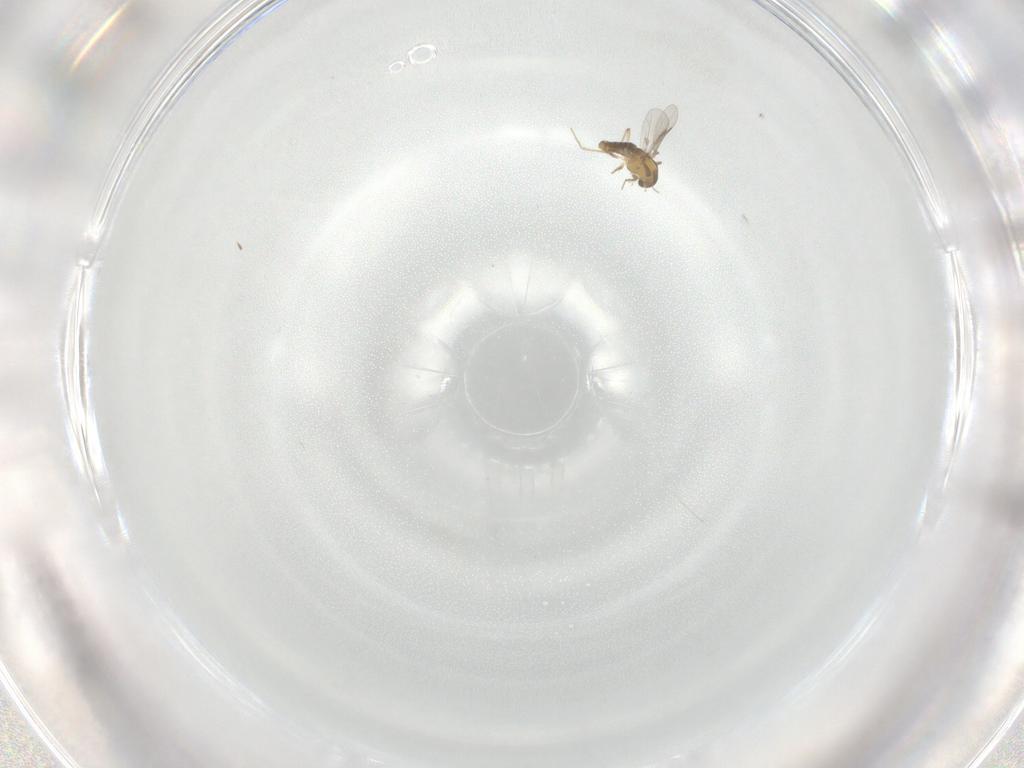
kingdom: Animalia
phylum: Arthropoda
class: Insecta
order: Diptera
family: Chironomidae
